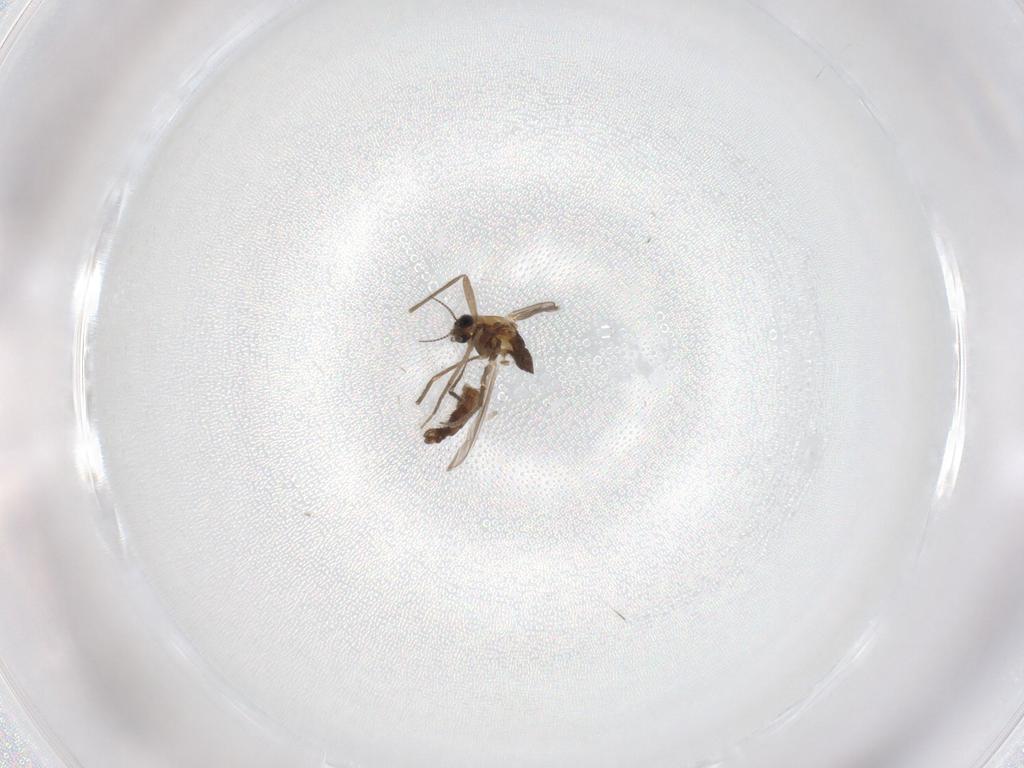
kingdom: Animalia
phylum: Arthropoda
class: Insecta
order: Diptera
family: Chironomidae
